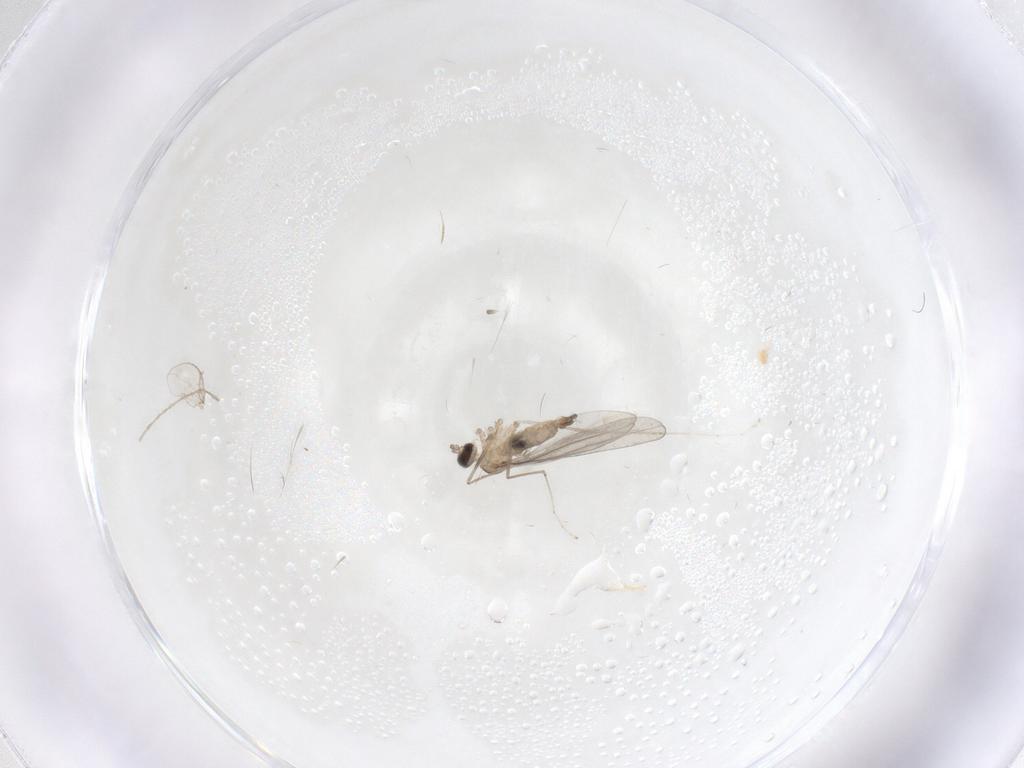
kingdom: Animalia
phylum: Arthropoda
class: Insecta
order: Diptera
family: Cecidomyiidae
